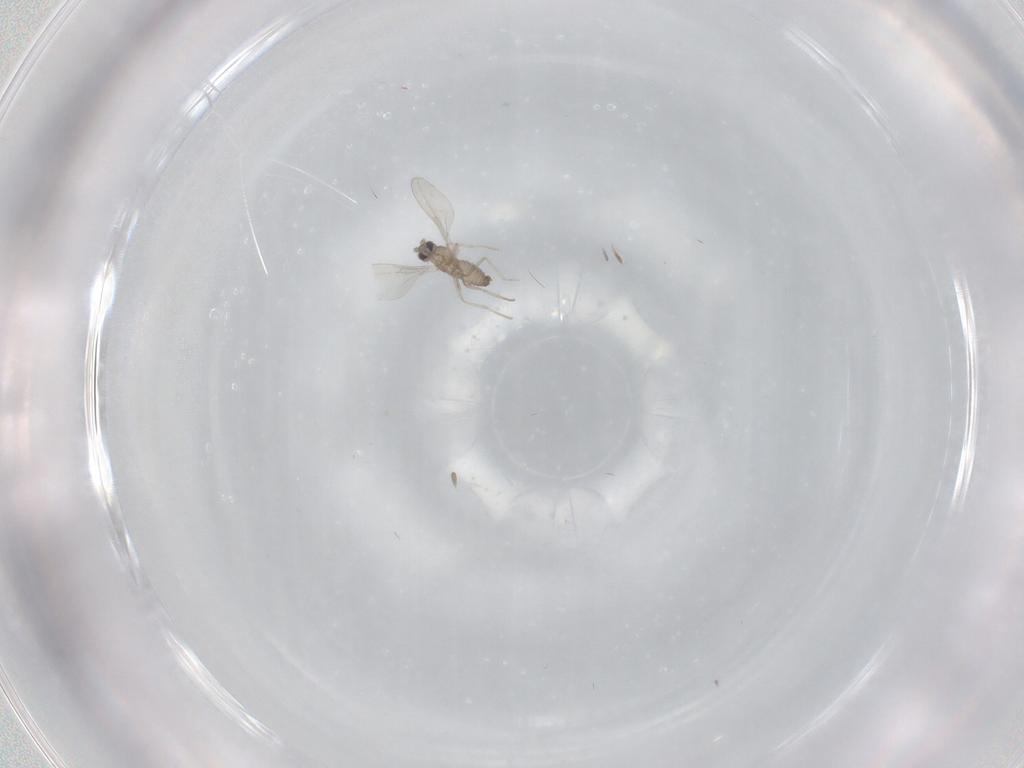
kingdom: Animalia
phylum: Arthropoda
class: Insecta
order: Diptera
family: Cecidomyiidae
